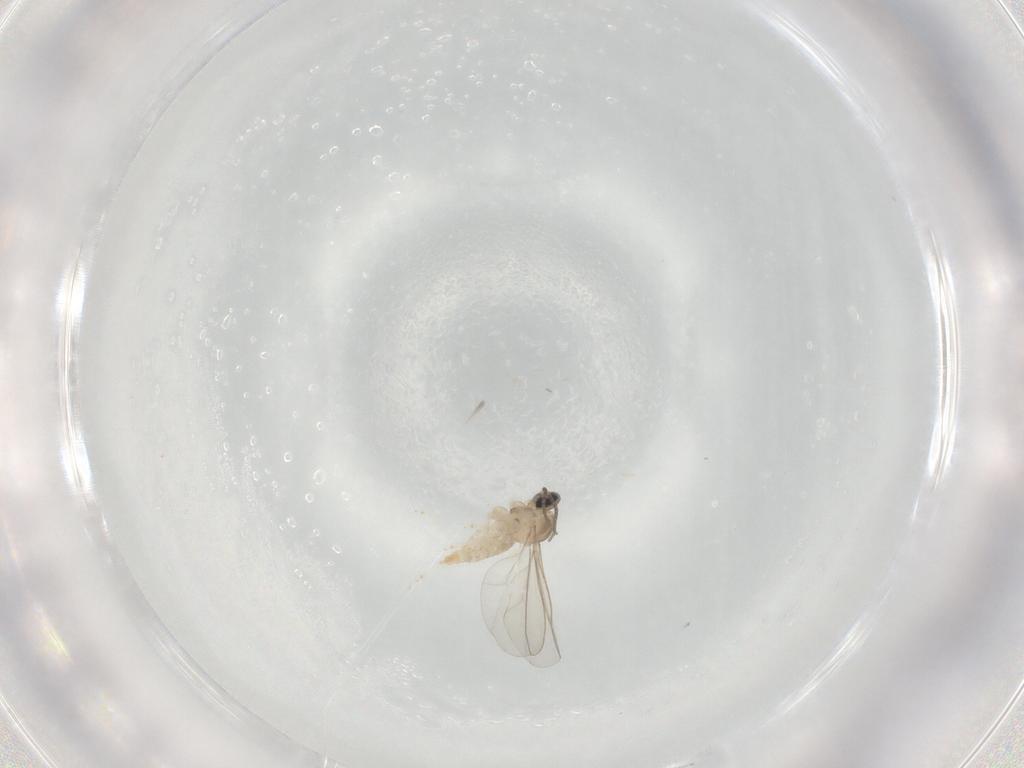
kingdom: Animalia
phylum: Arthropoda
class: Insecta
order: Diptera
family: Cecidomyiidae
